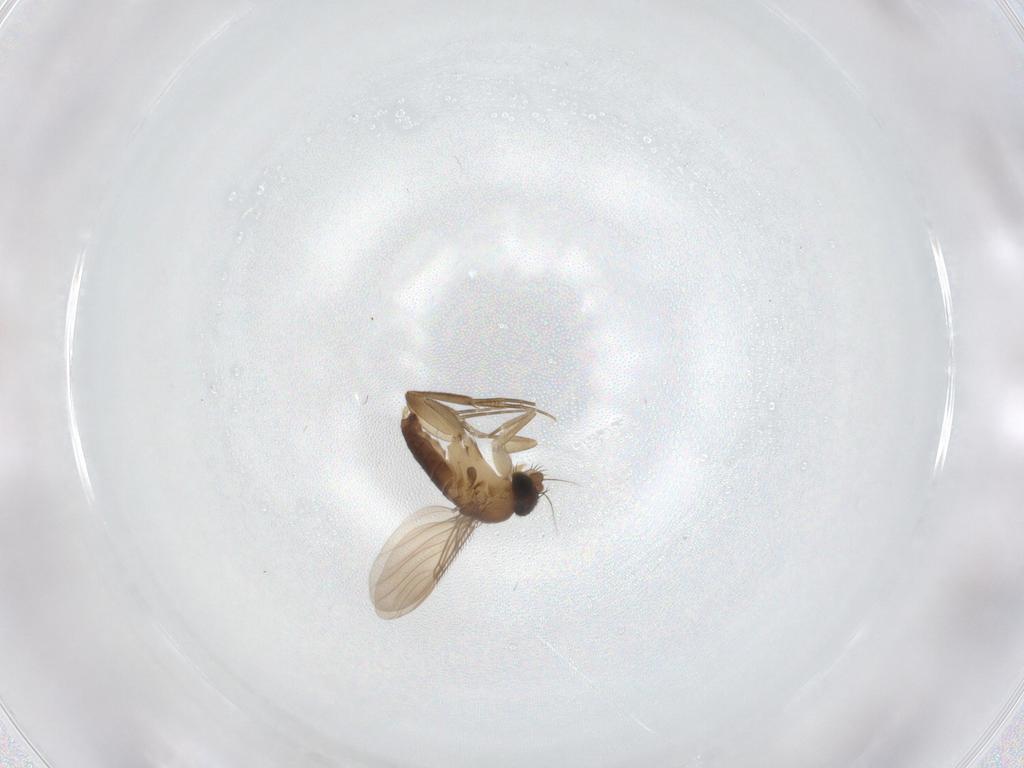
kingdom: Animalia
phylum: Arthropoda
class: Insecta
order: Diptera
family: Phoridae
